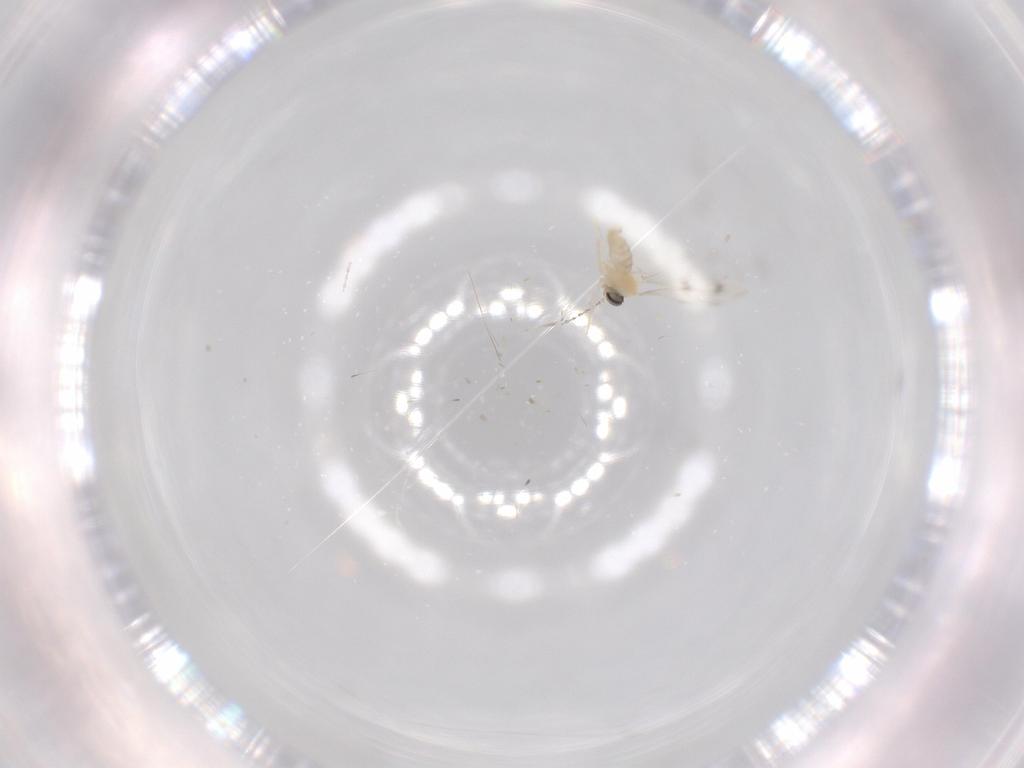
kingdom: Animalia
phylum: Arthropoda
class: Insecta
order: Diptera
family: Cecidomyiidae
